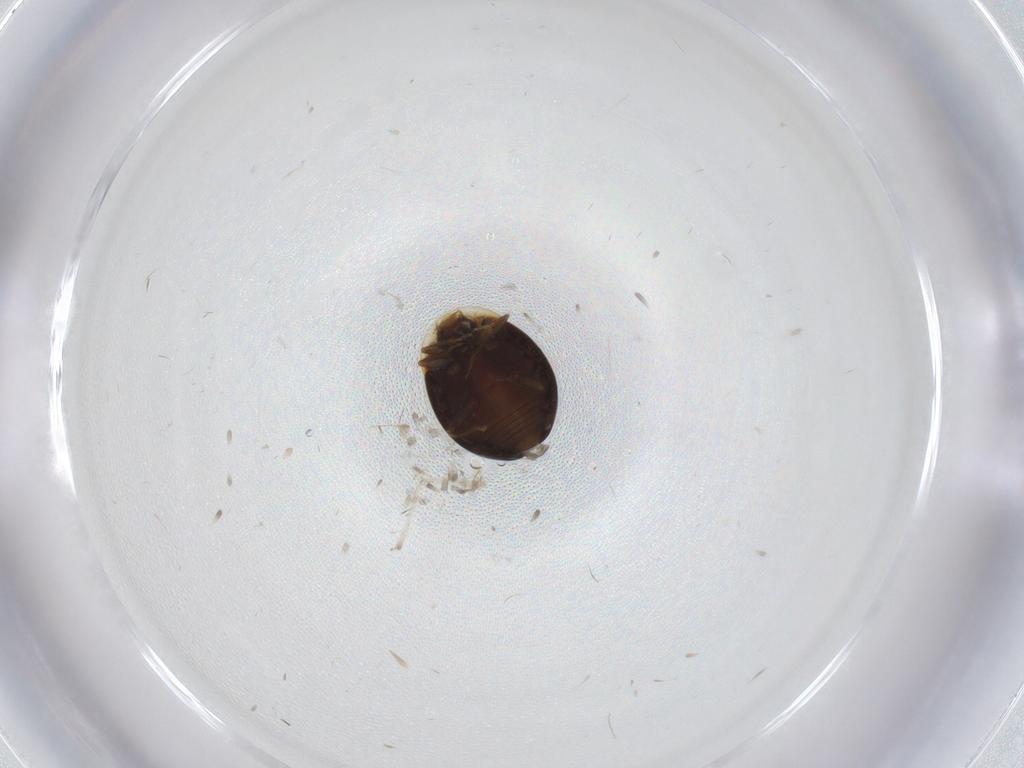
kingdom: Animalia
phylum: Arthropoda
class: Insecta
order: Coleoptera
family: Corylophidae
